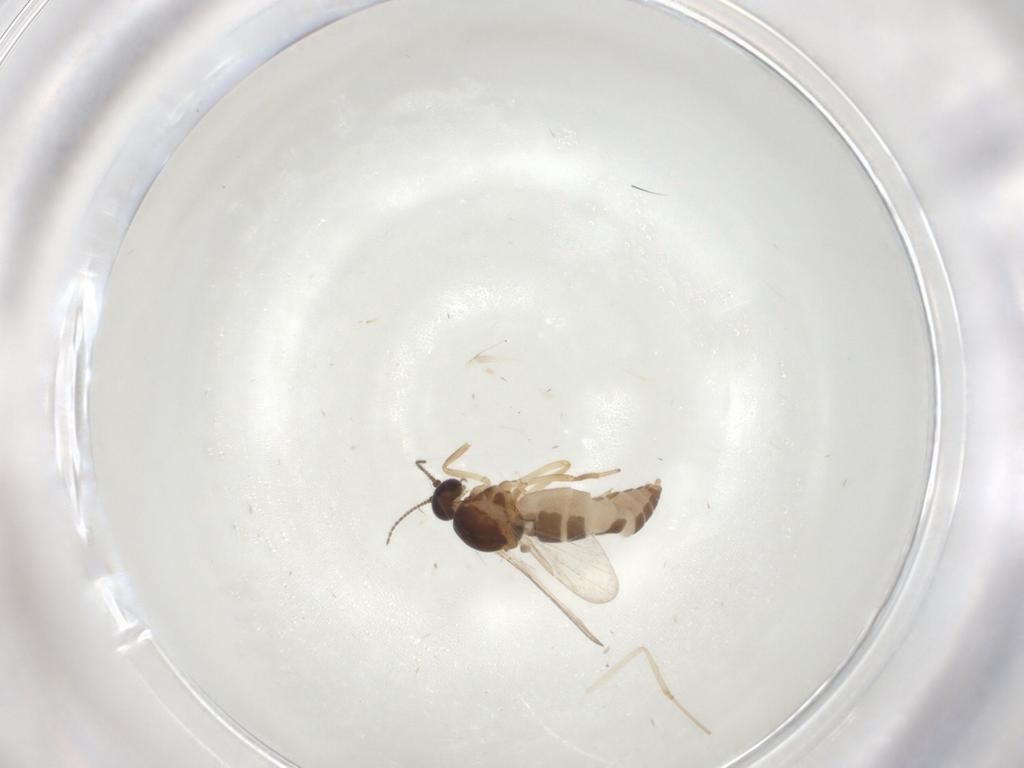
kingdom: Animalia
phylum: Arthropoda
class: Insecta
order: Diptera
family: Ceratopogonidae
